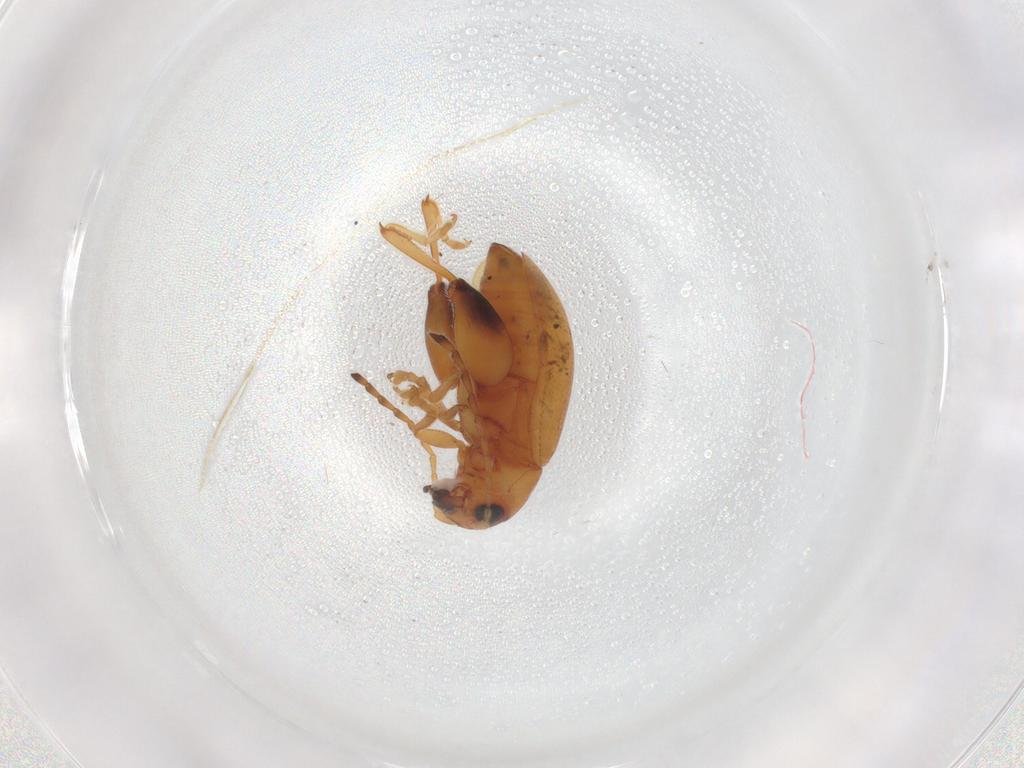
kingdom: Animalia
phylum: Arthropoda
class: Insecta
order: Coleoptera
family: Chrysomelidae
